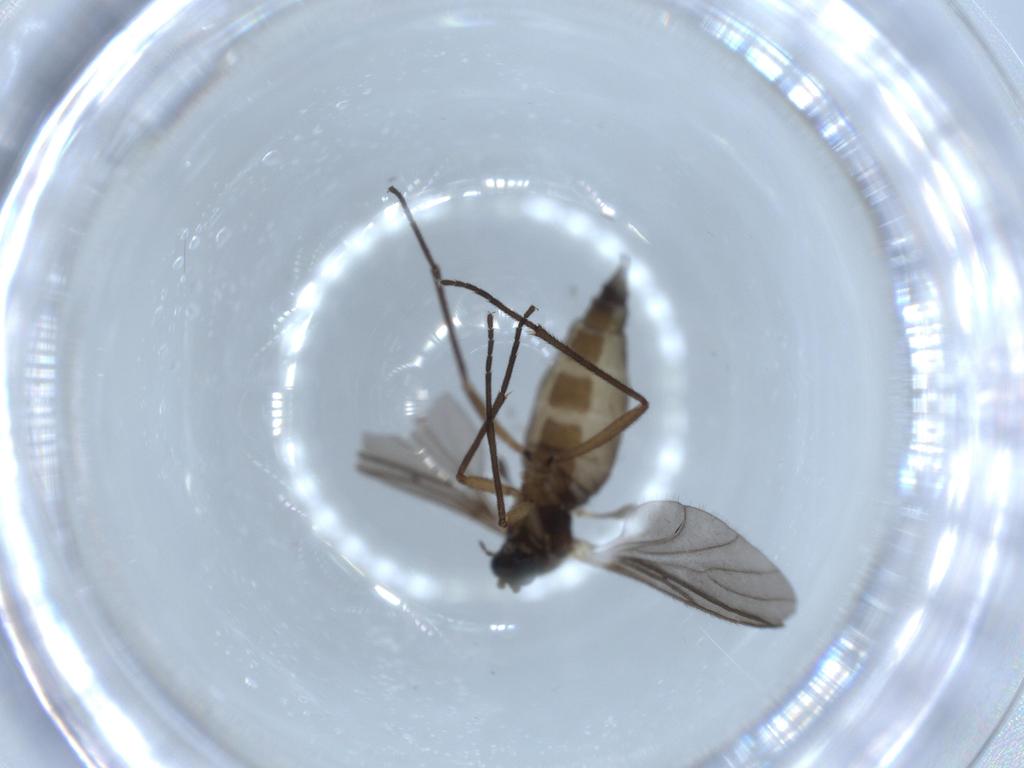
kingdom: Animalia
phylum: Arthropoda
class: Insecta
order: Diptera
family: Sciaridae
